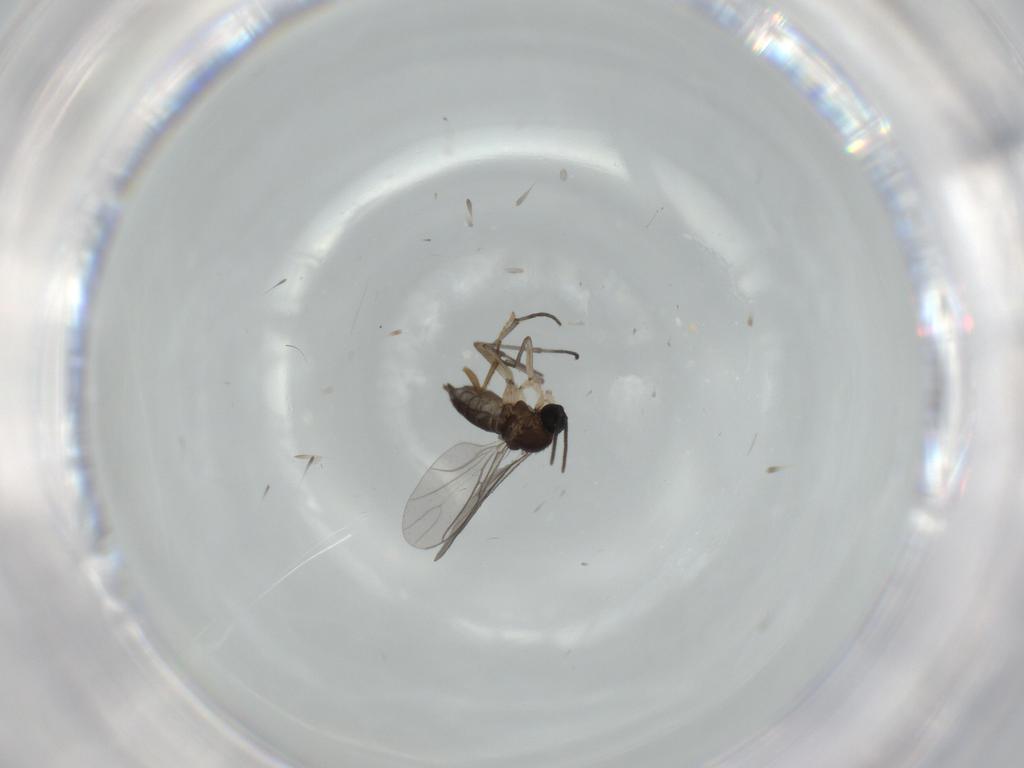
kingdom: Animalia
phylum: Arthropoda
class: Insecta
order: Diptera
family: Sciaridae
